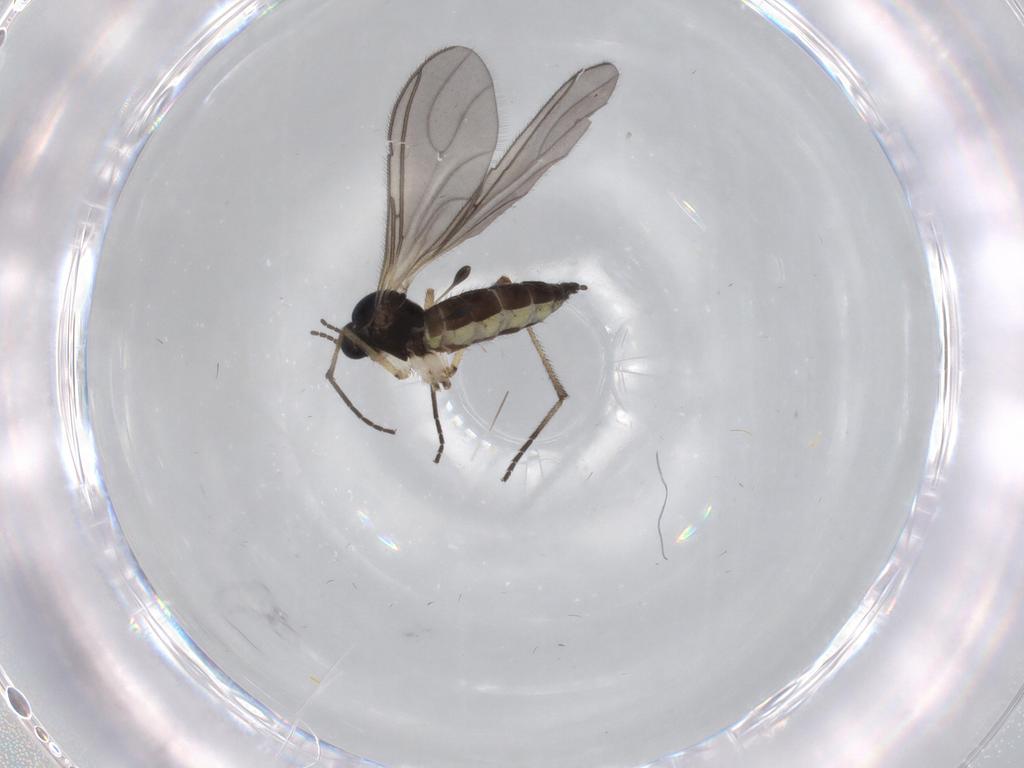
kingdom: Animalia
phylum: Arthropoda
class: Insecta
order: Diptera
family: Sciaridae
